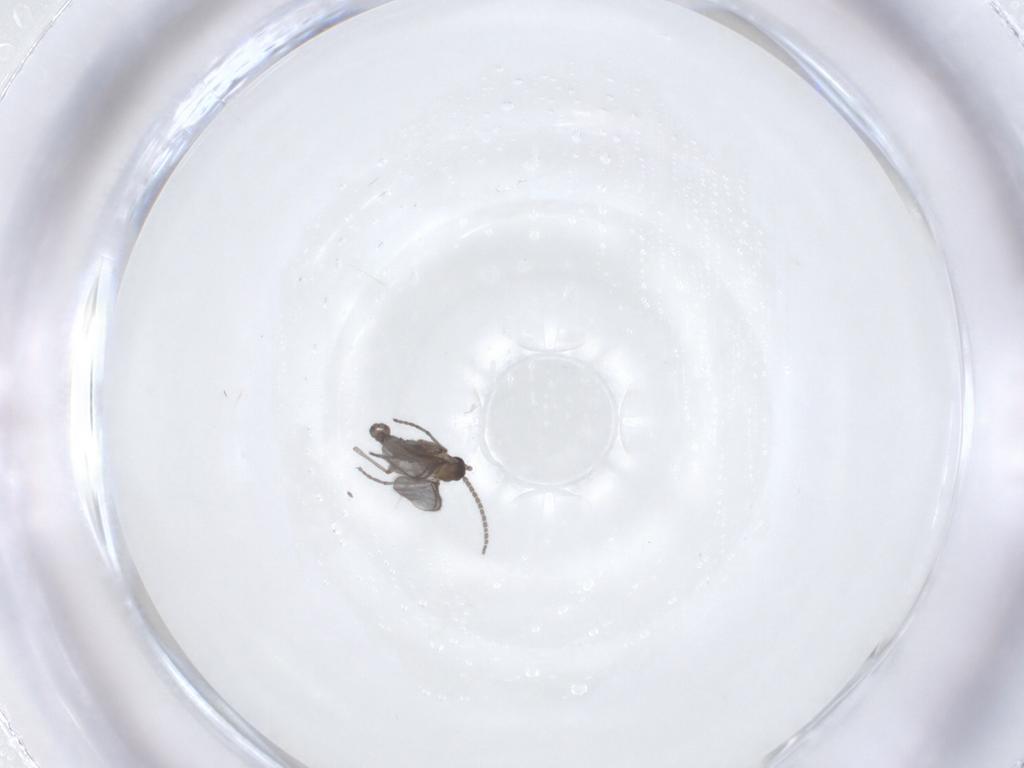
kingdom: Animalia
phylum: Arthropoda
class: Insecta
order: Diptera
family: Sciaridae
